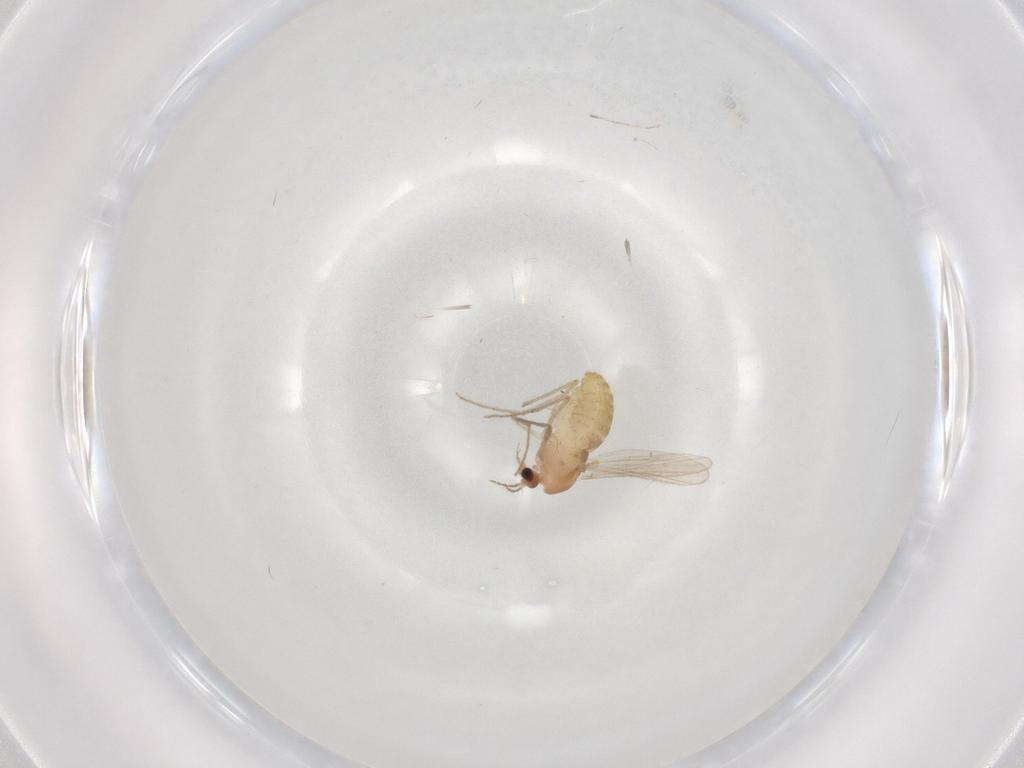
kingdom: Animalia
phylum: Arthropoda
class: Insecta
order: Diptera
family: Chironomidae
